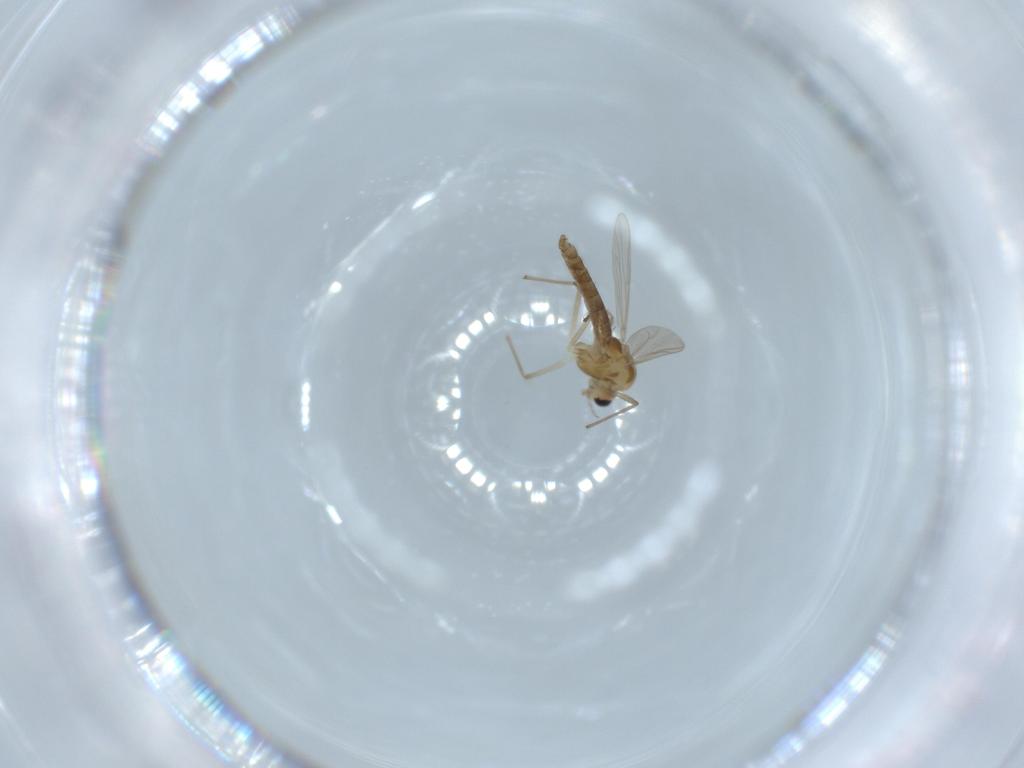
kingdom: Animalia
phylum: Arthropoda
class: Insecta
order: Diptera
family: Chironomidae
